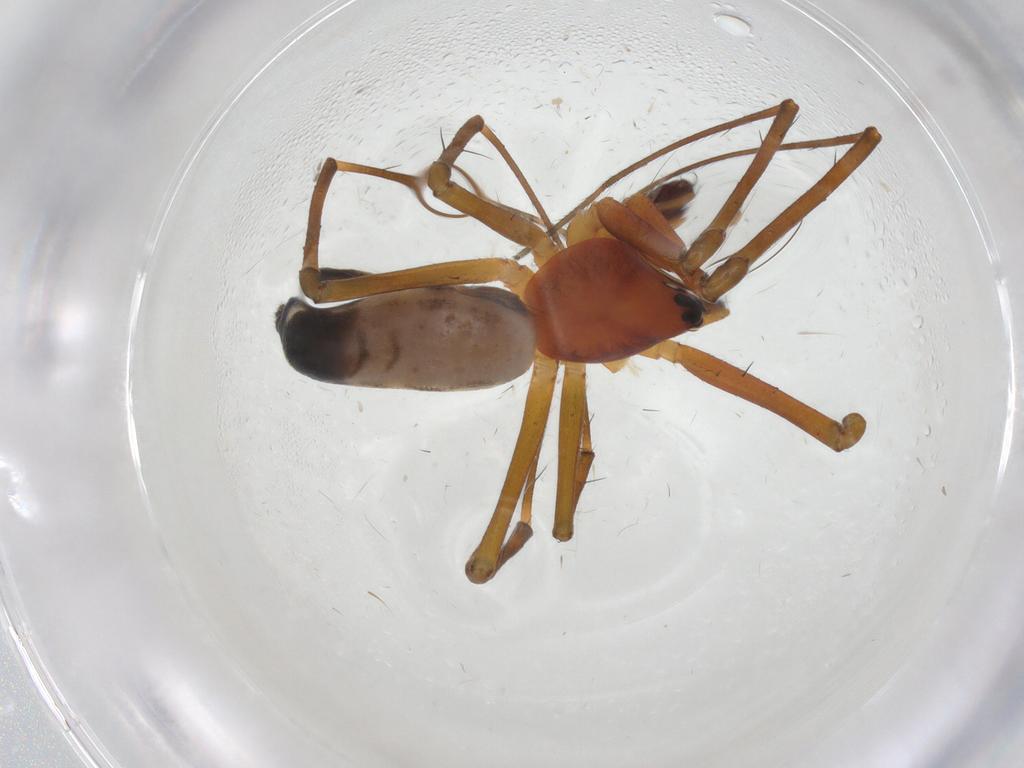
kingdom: Animalia
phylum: Arthropoda
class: Arachnida
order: Araneae
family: Linyphiidae
